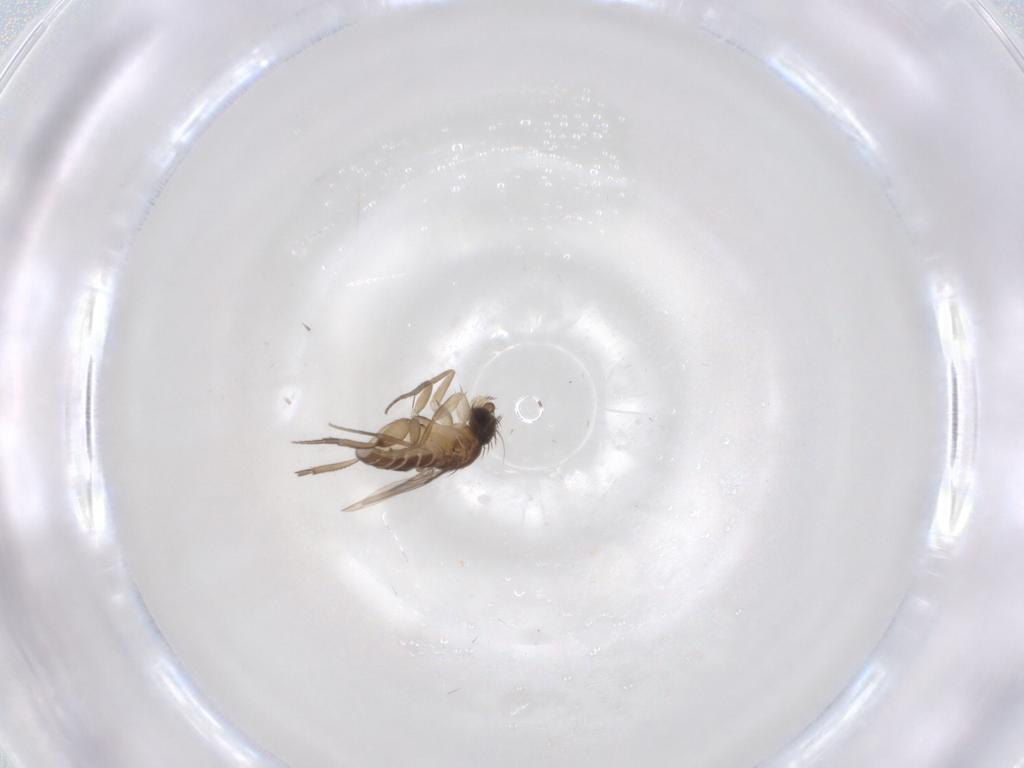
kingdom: Animalia
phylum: Arthropoda
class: Insecta
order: Diptera
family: Phoridae
